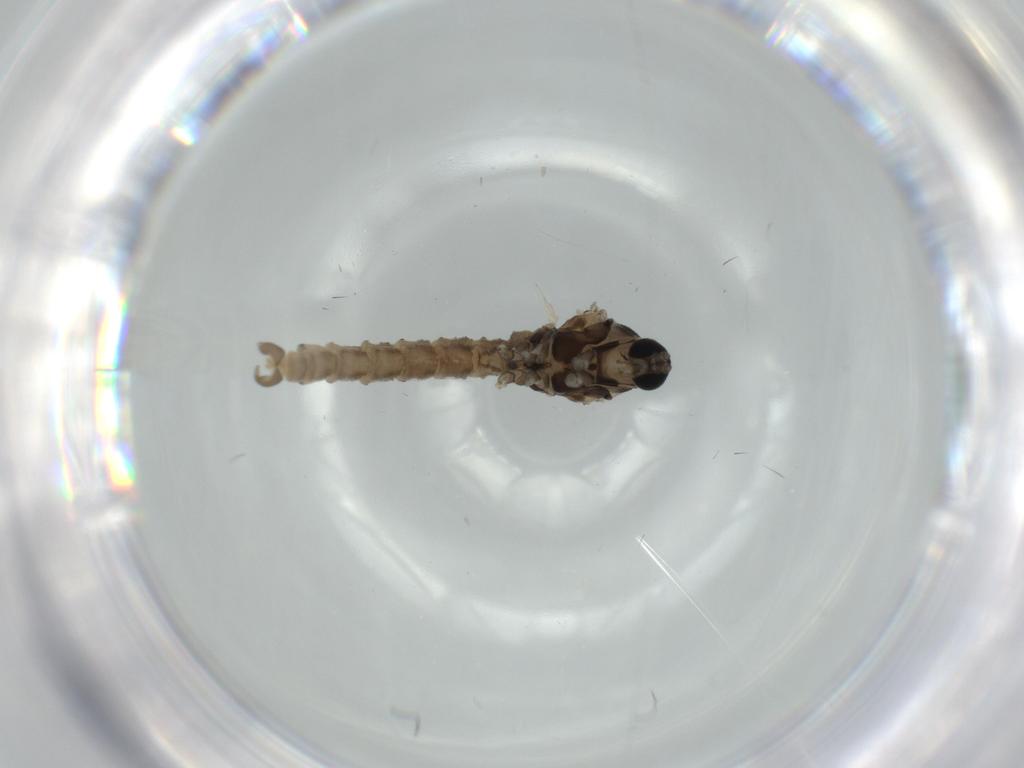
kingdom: Animalia
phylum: Arthropoda
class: Insecta
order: Diptera
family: Cecidomyiidae
